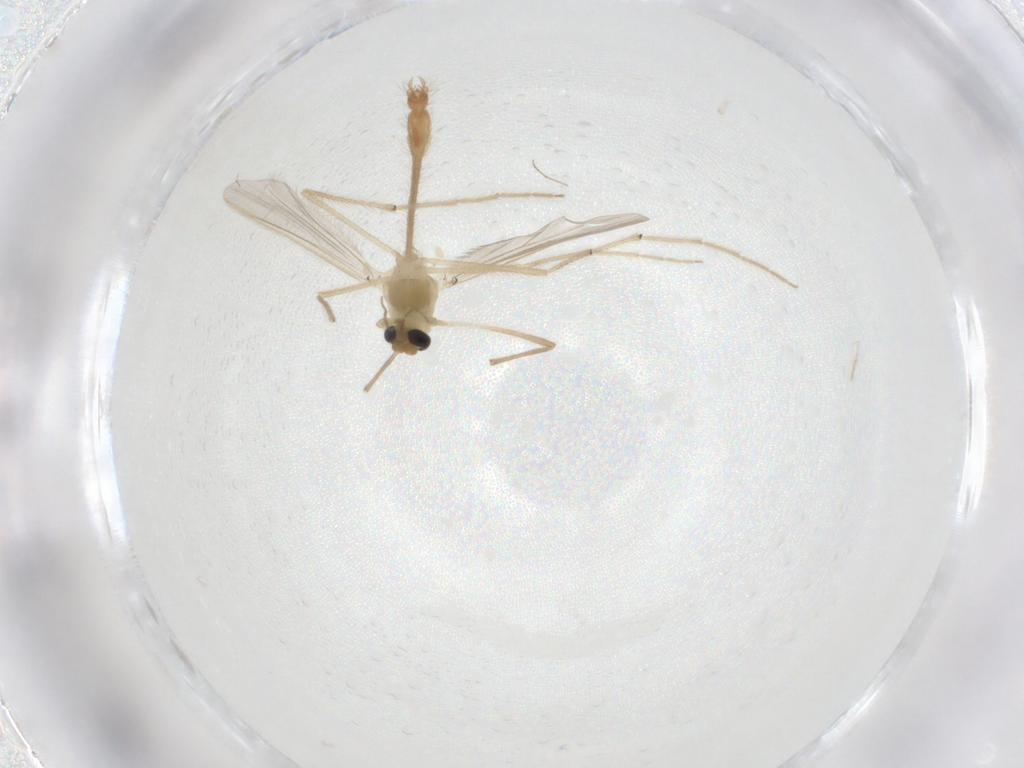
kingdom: Animalia
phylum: Arthropoda
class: Insecta
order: Diptera
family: Chironomidae
